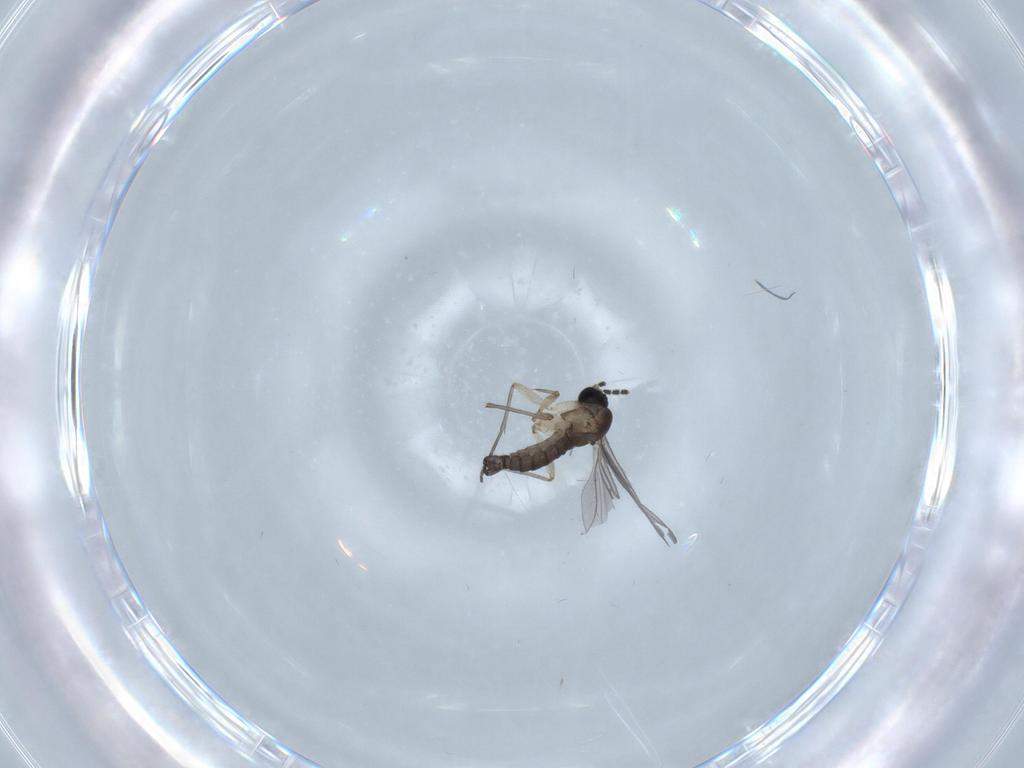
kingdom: Animalia
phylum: Arthropoda
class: Insecta
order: Diptera
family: Sciaridae
